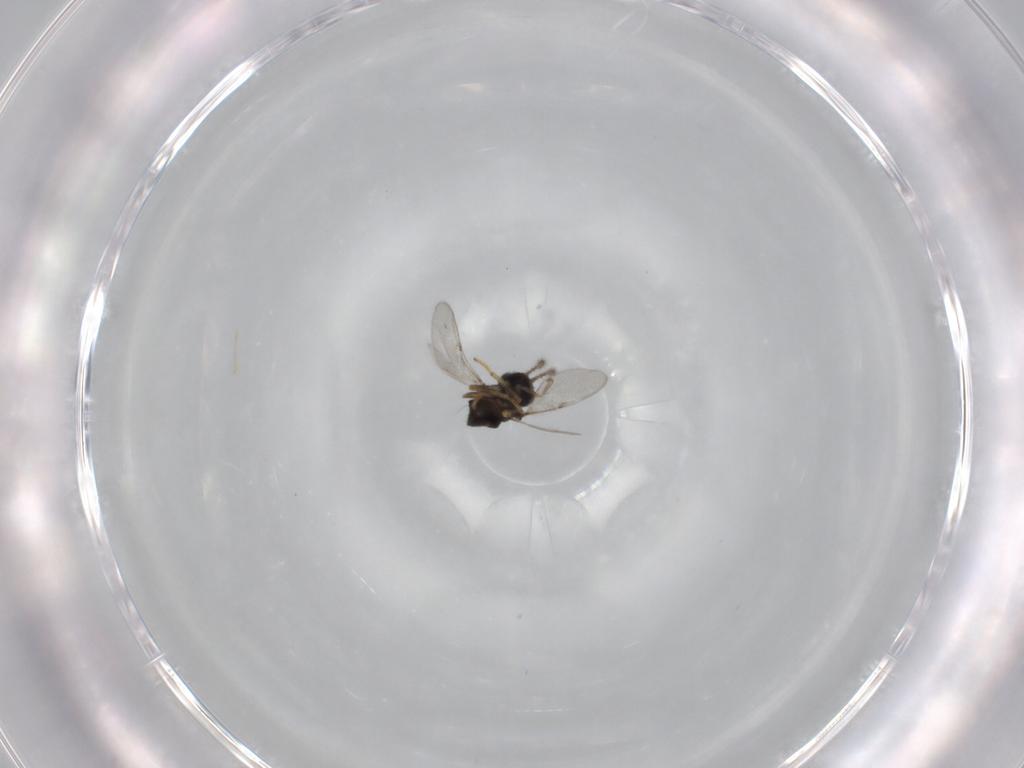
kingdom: Animalia
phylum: Arthropoda
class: Insecta
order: Hymenoptera
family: Encyrtidae
